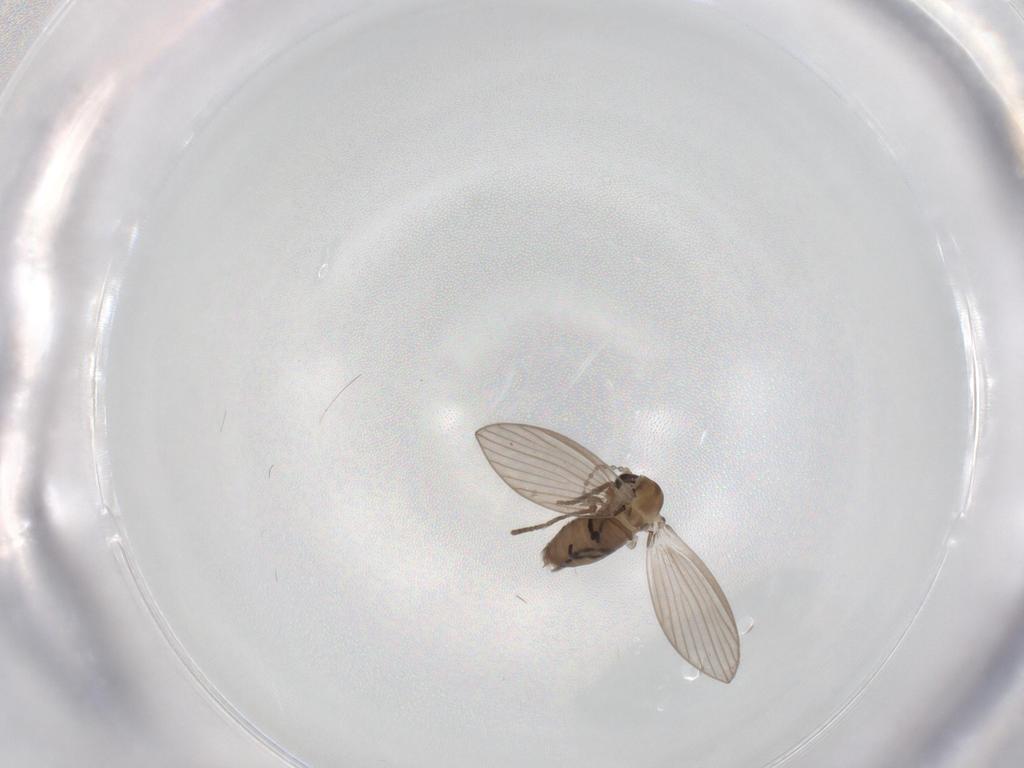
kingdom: Animalia
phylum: Arthropoda
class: Insecta
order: Diptera
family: Psychodidae
